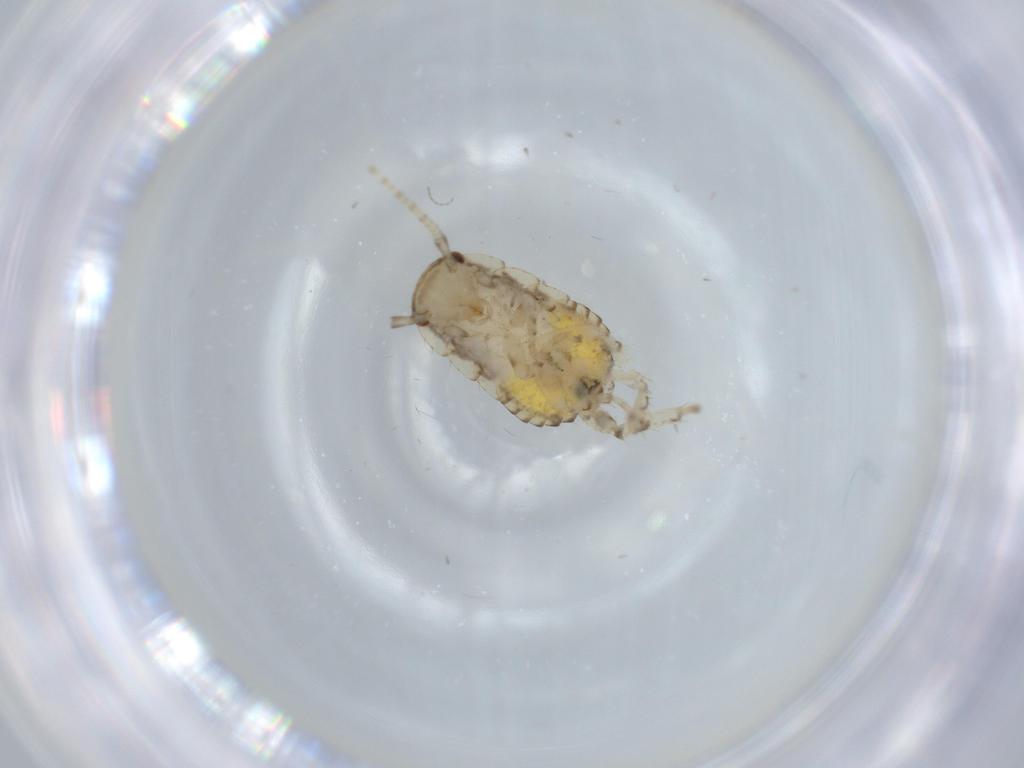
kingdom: Animalia
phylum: Arthropoda
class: Insecta
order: Blattodea
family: Ectobiidae
